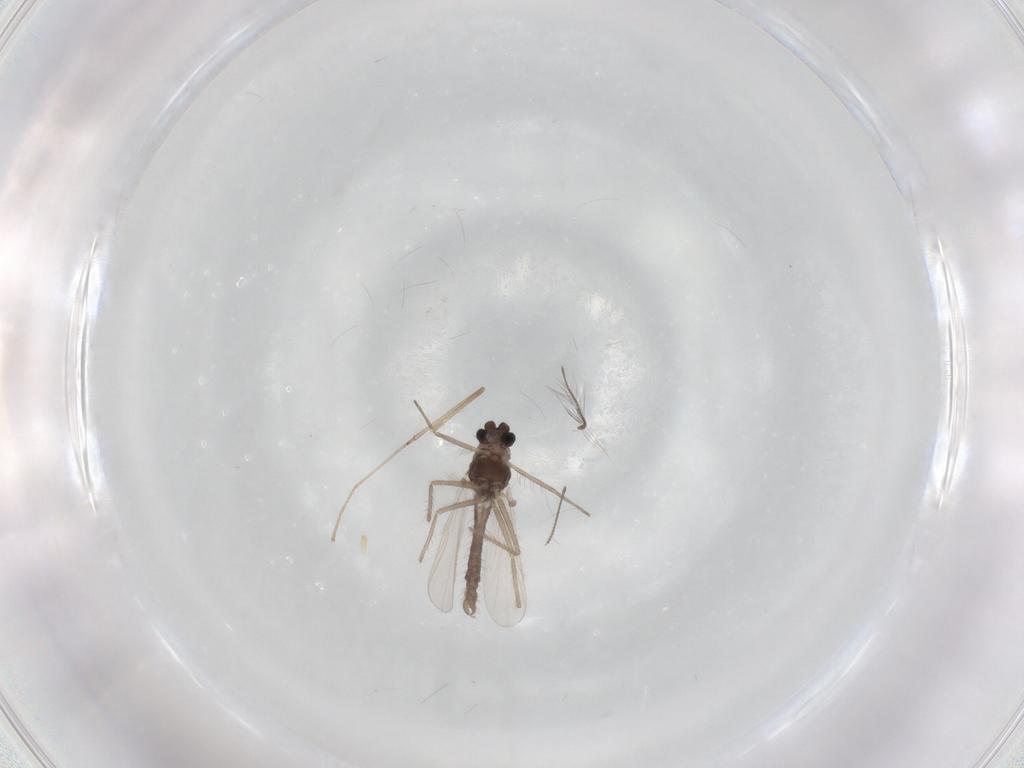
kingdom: Animalia
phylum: Arthropoda
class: Insecta
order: Diptera
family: Chironomidae
